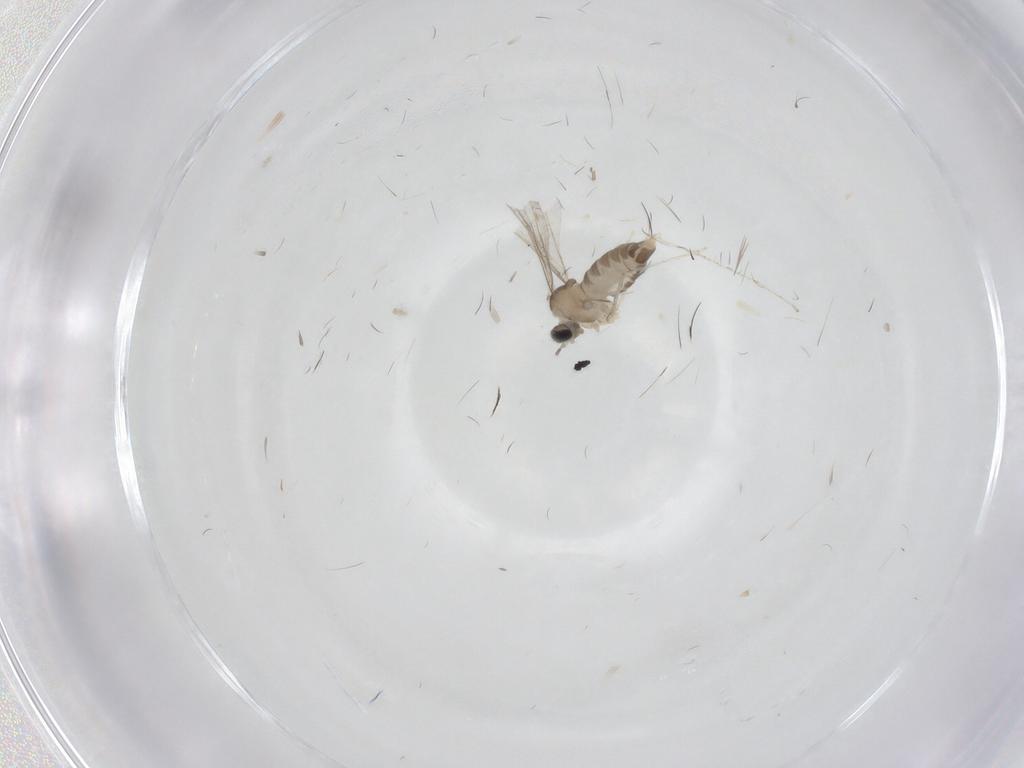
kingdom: Animalia
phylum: Arthropoda
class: Insecta
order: Diptera
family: Cecidomyiidae
